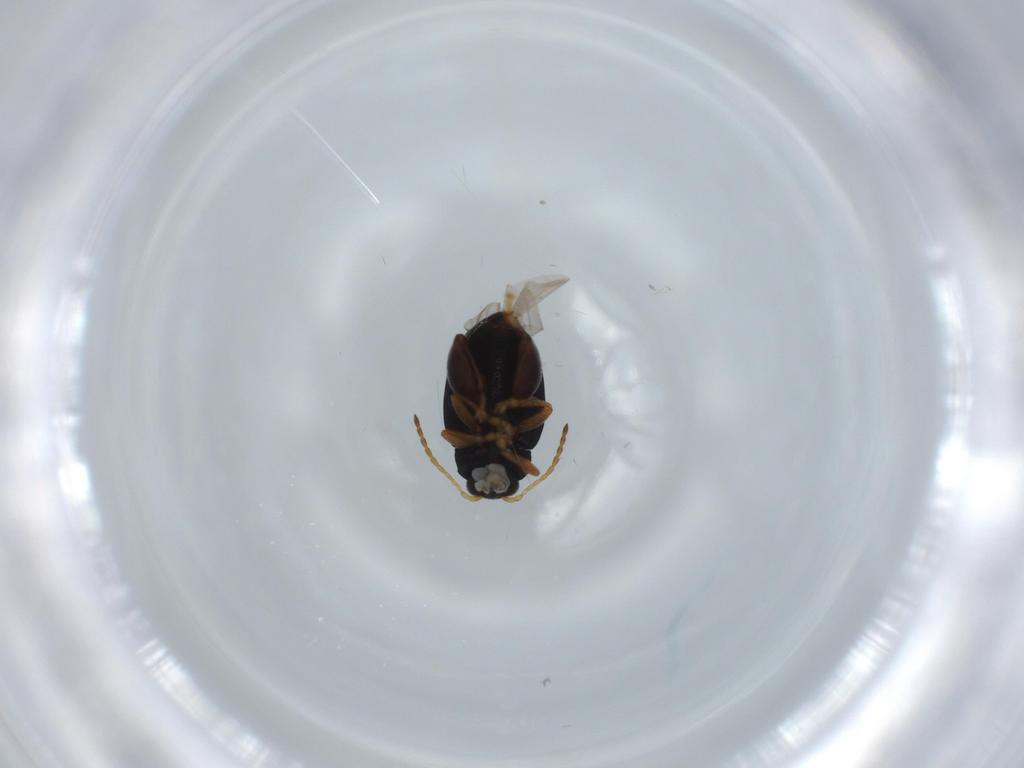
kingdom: Animalia
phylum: Arthropoda
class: Insecta
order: Coleoptera
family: Chrysomelidae
